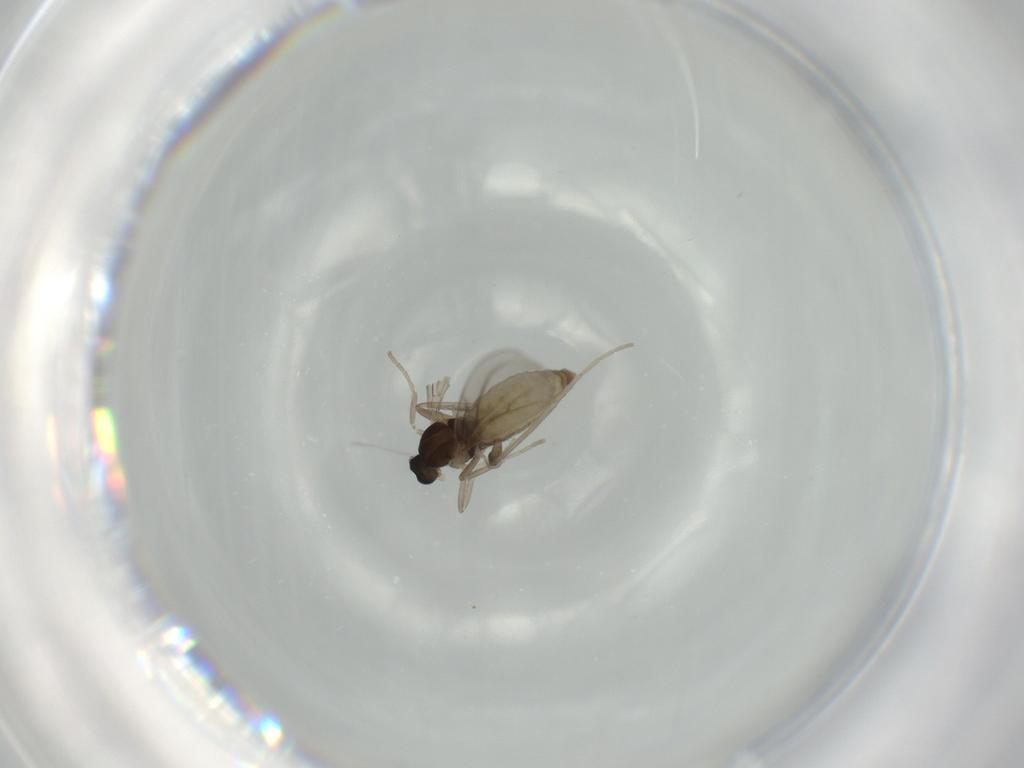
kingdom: Animalia
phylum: Arthropoda
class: Insecta
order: Diptera
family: Cecidomyiidae
